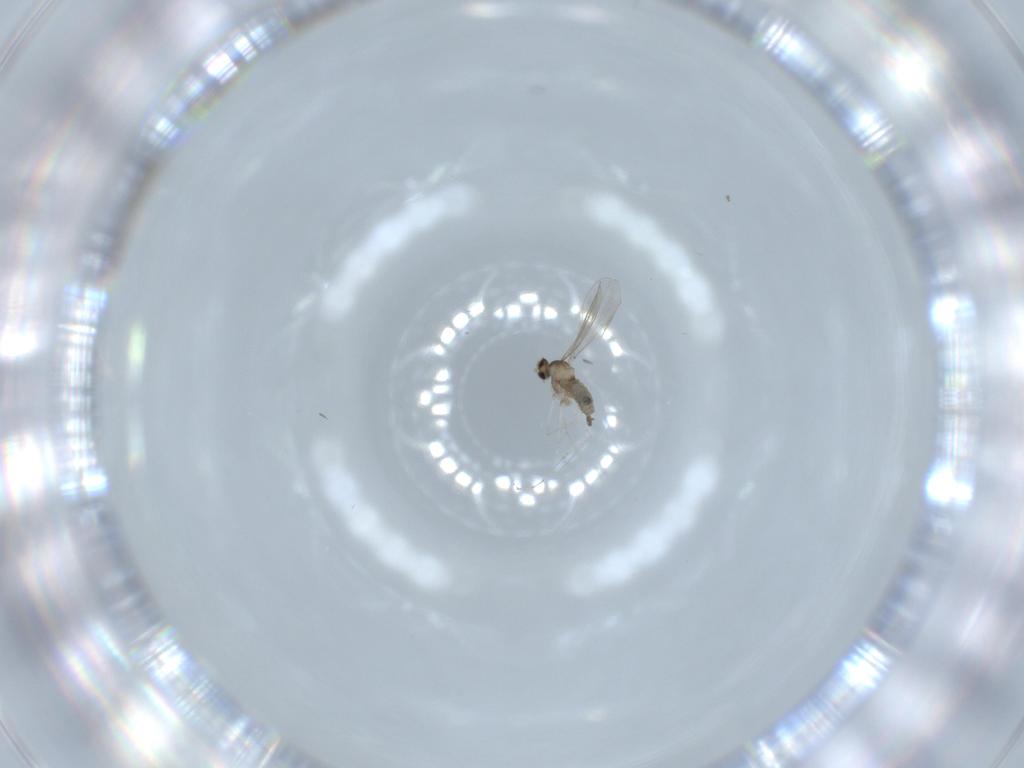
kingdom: Animalia
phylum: Arthropoda
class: Insecta
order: Diptera
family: Cecidomyiidae
